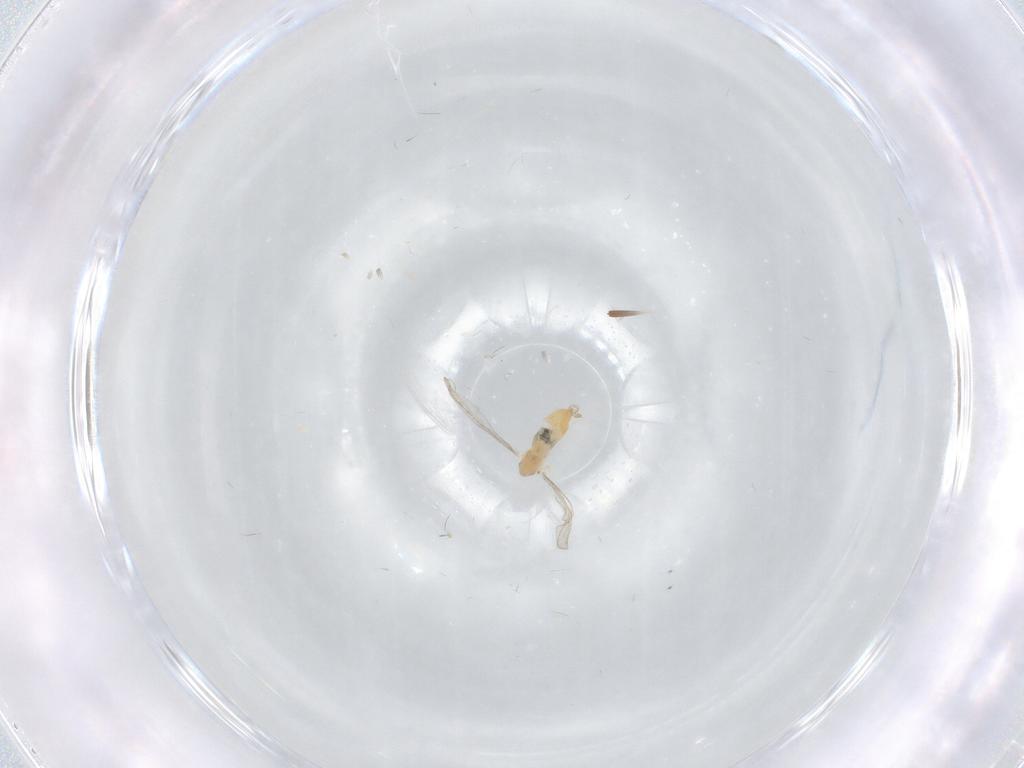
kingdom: Animalia
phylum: Arthropoda
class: Insecta
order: Diptera
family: Cecidomyiidae
